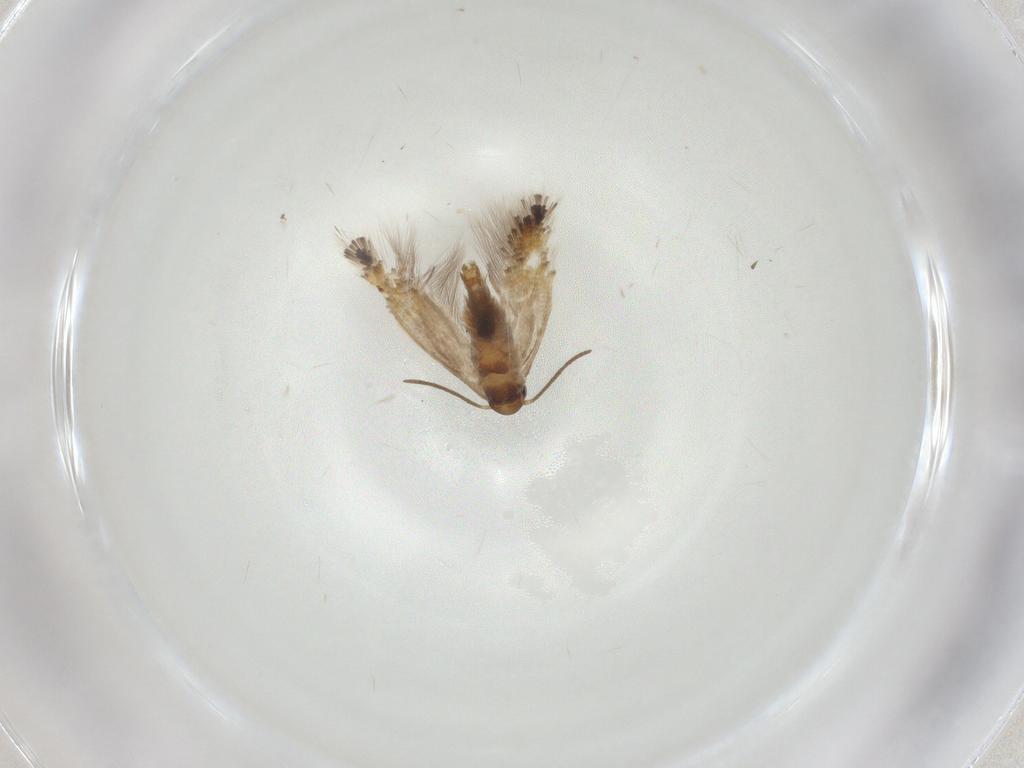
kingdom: Animalia
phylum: Arthropoda
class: Insecta
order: Lepidoptera
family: Heliozelidae
